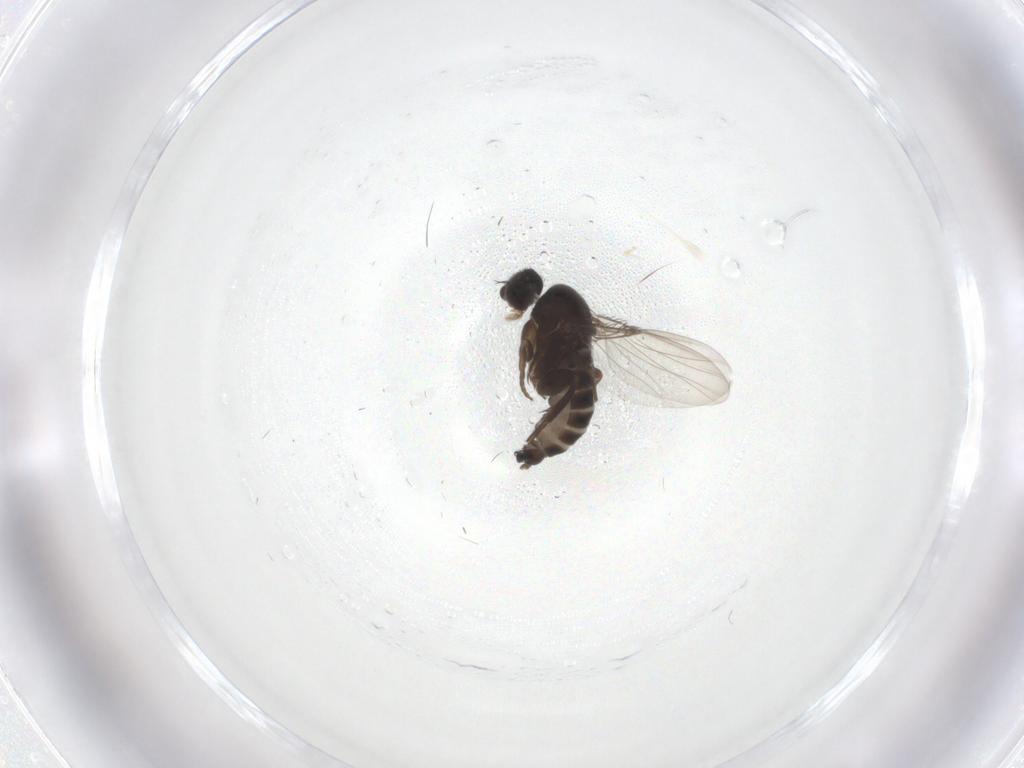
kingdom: Animalia
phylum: Arthropoda
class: Insecta
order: Diptera
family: Phoridae
